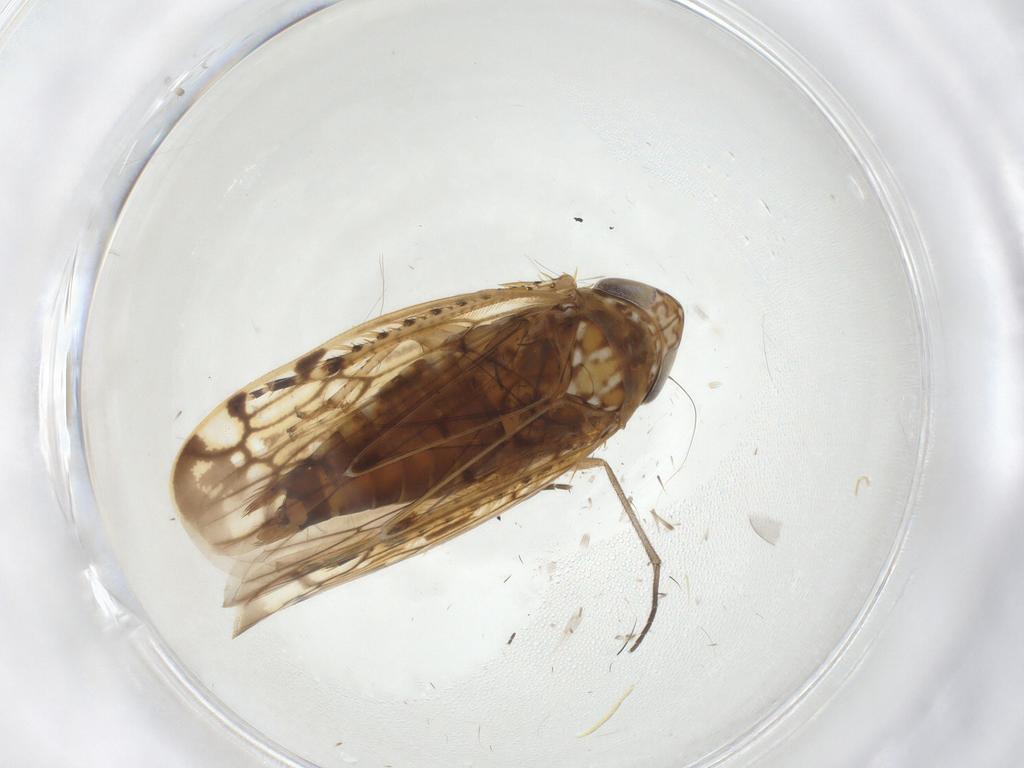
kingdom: Animalia
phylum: Arthropoda
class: Insecta
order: Hemiptera
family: Cicadellidae
